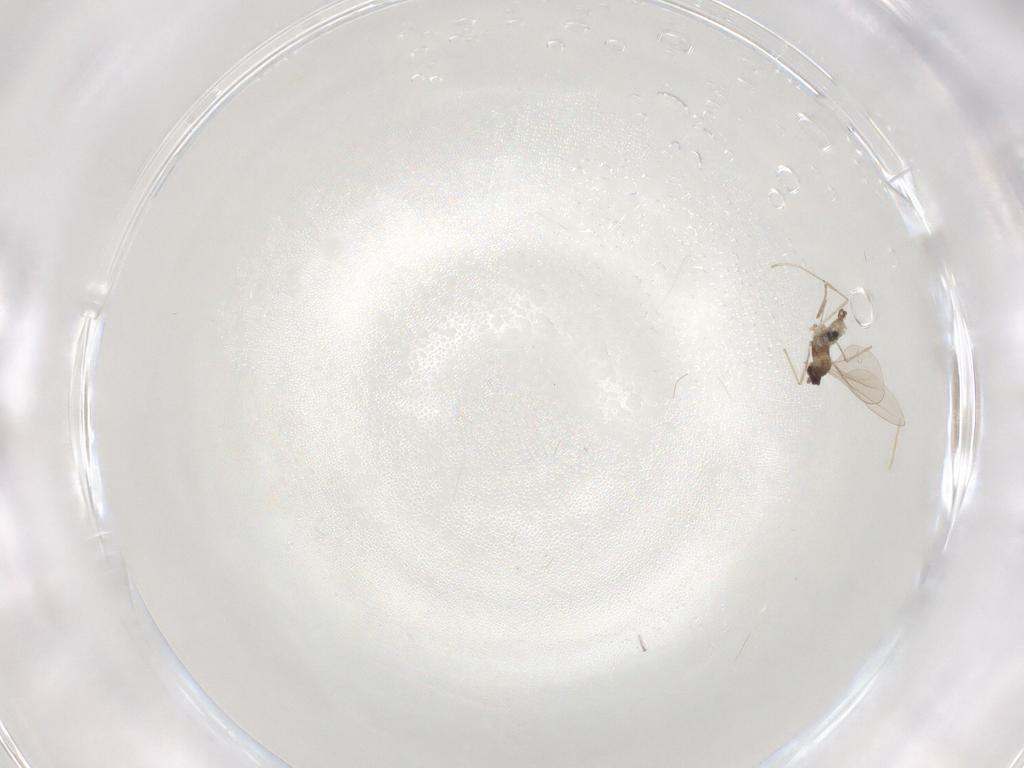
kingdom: Animalia
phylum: Arthropoda
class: Insecta
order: Diptera
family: Cecidomyiidae
